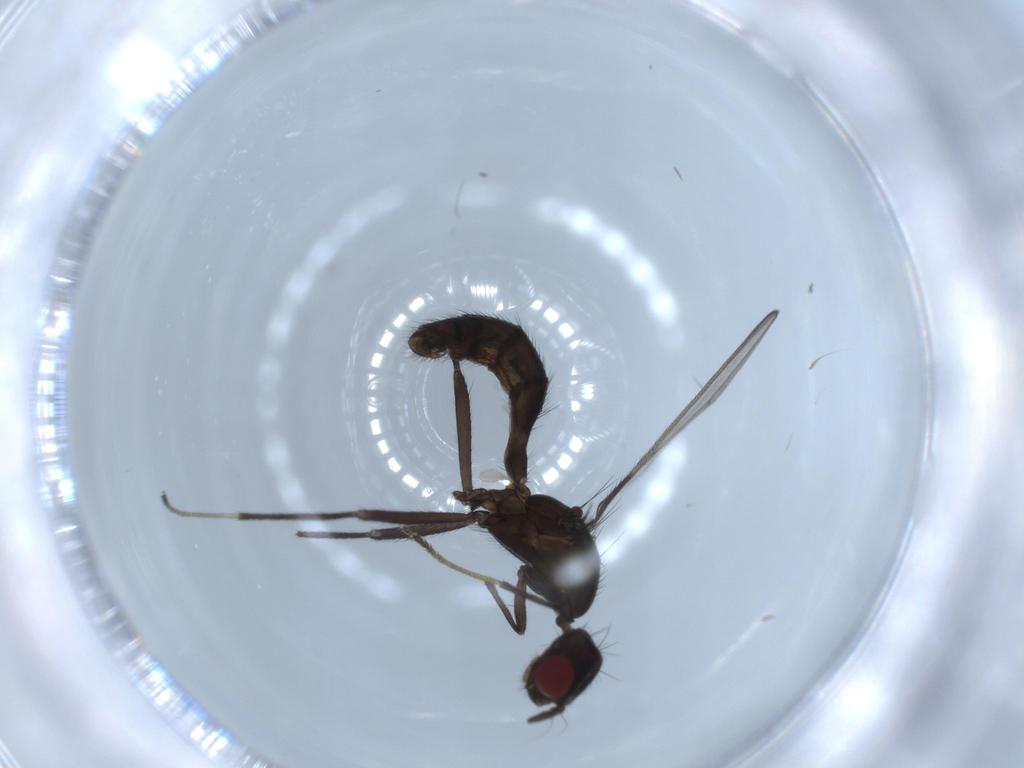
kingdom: Animalia
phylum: Arthropoda
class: Insecta
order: Diptera
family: Richardiidae
